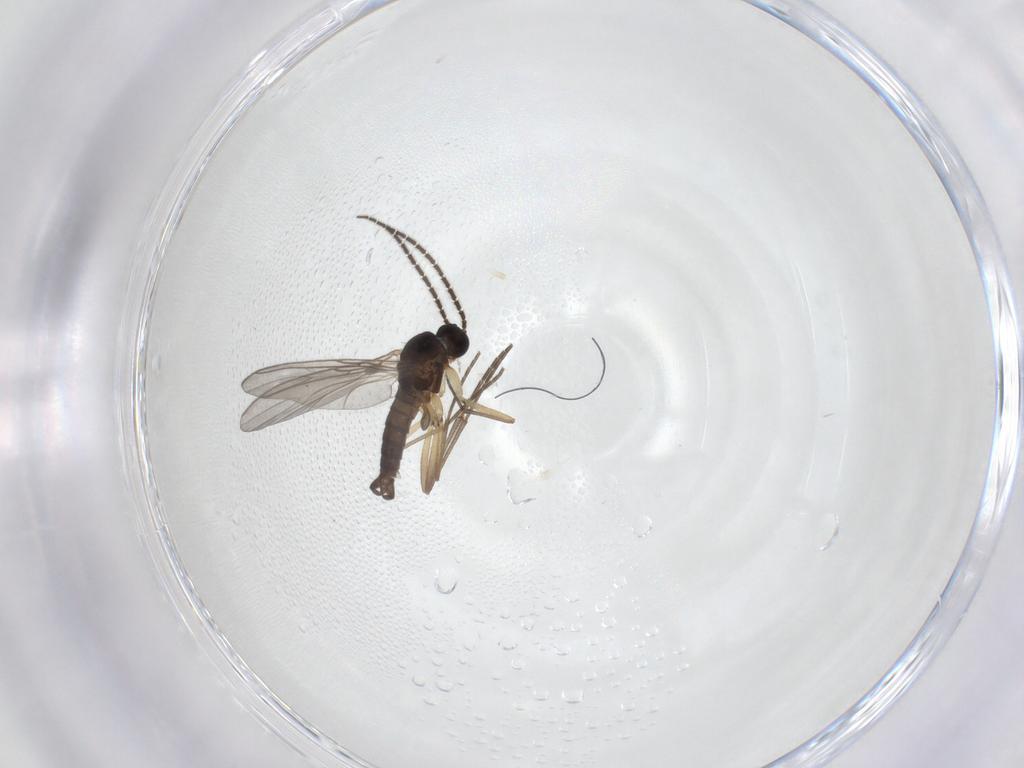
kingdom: Animalia
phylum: Arthropoda
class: Insecta
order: Diptera
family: Sciaridae
